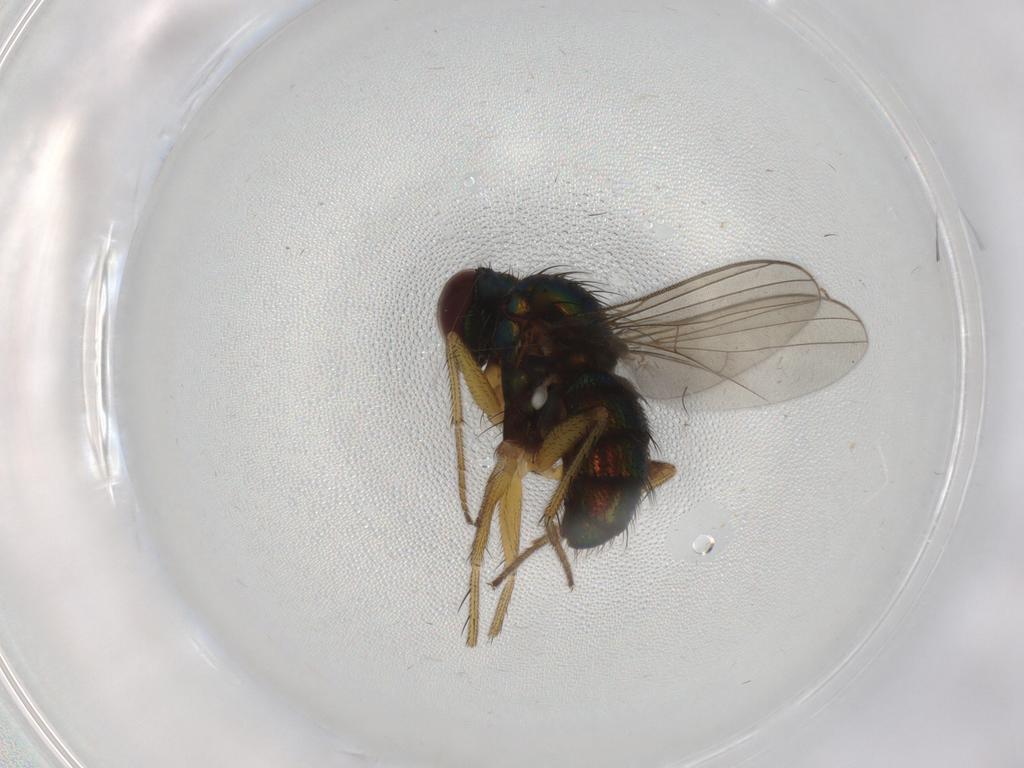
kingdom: Animalia
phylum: Arthropoda
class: Insecta
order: Diptera
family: Dolichopodidae
